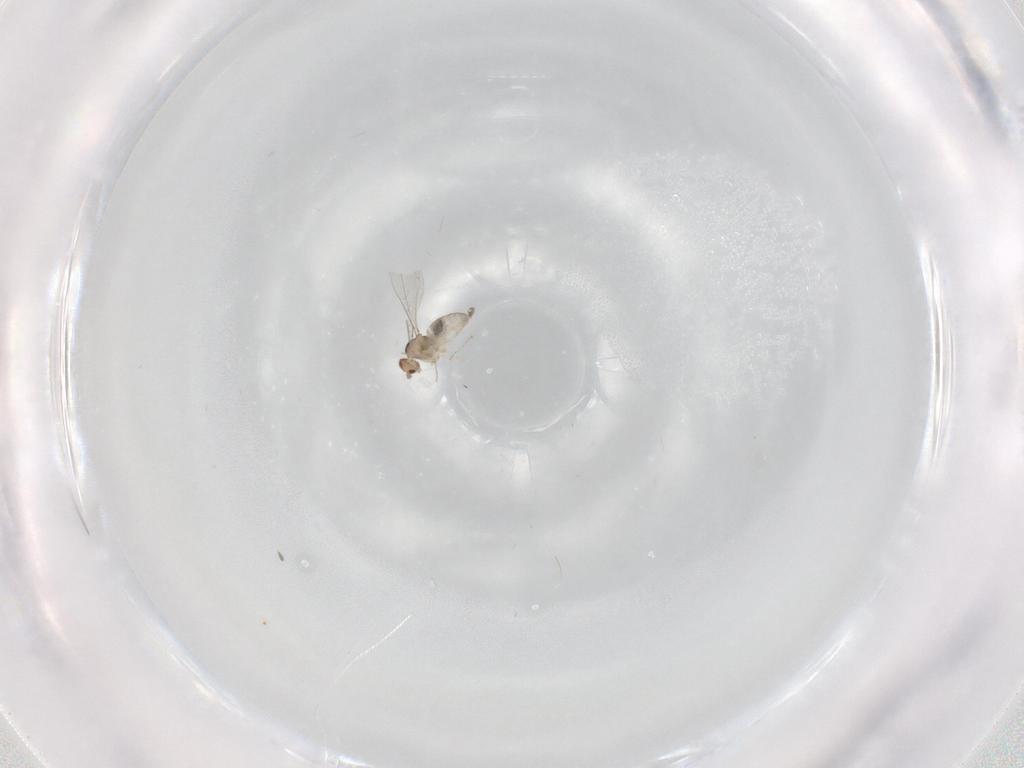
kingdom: Animalia
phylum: Arthropoda
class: Insecta
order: Diptera
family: Cecidomyiidae
